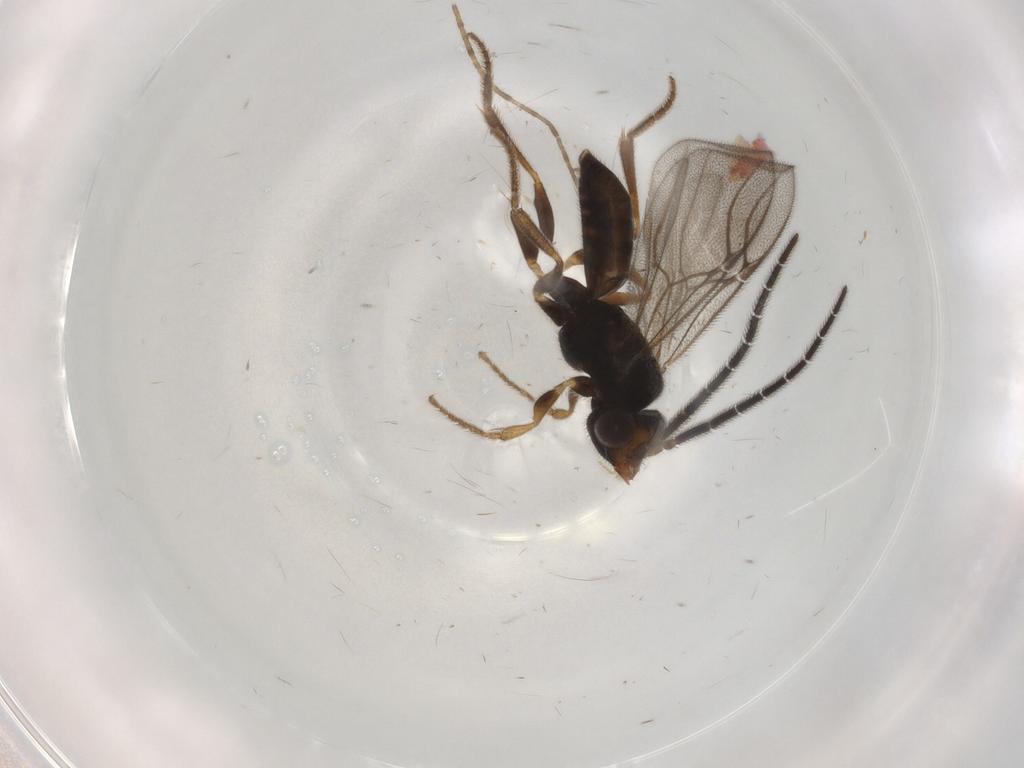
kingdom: Animalia
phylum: Arthropoda
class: Insecta
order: Hymenoptera
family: Dryinidae
